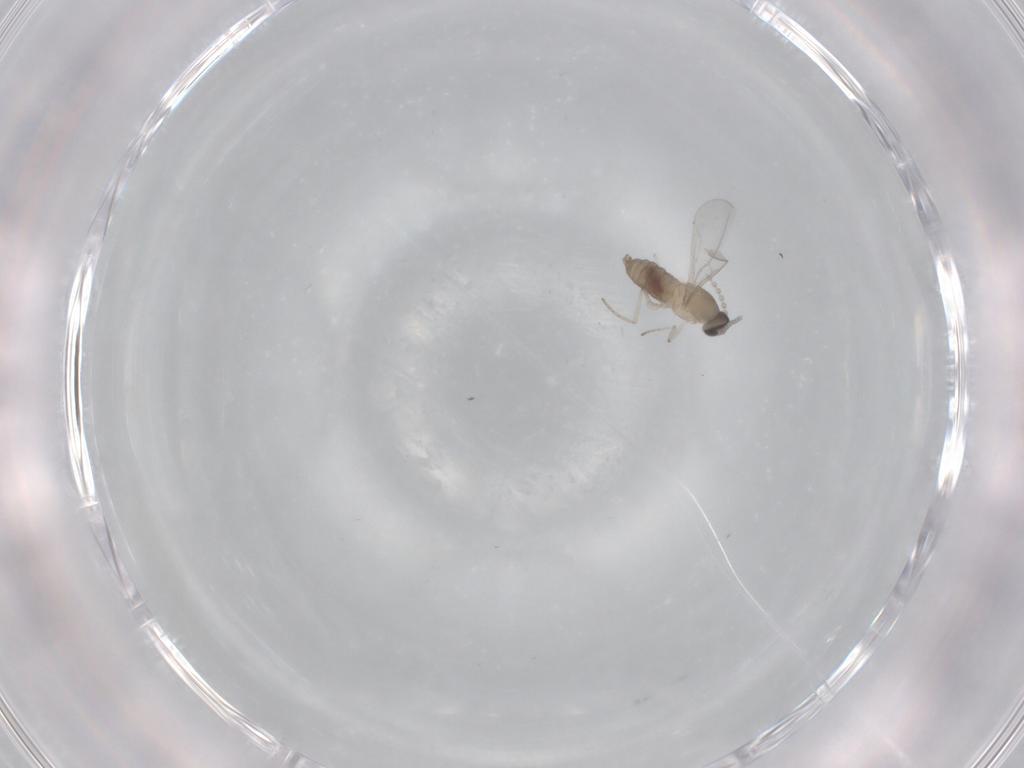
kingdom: Animalia
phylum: Arthropoda
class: Insecta
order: Diptera
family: Cecidomyiidae
